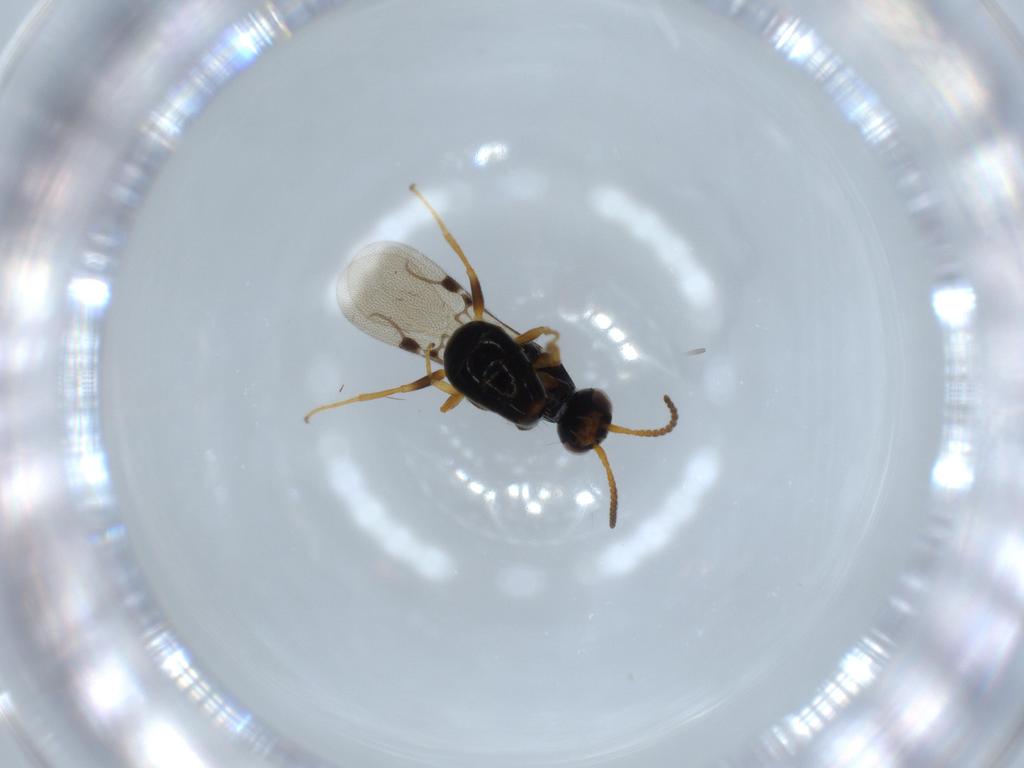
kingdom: Animalia
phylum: Arthropoda
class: Insecta
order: Hymenoptera
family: Bethylidae
